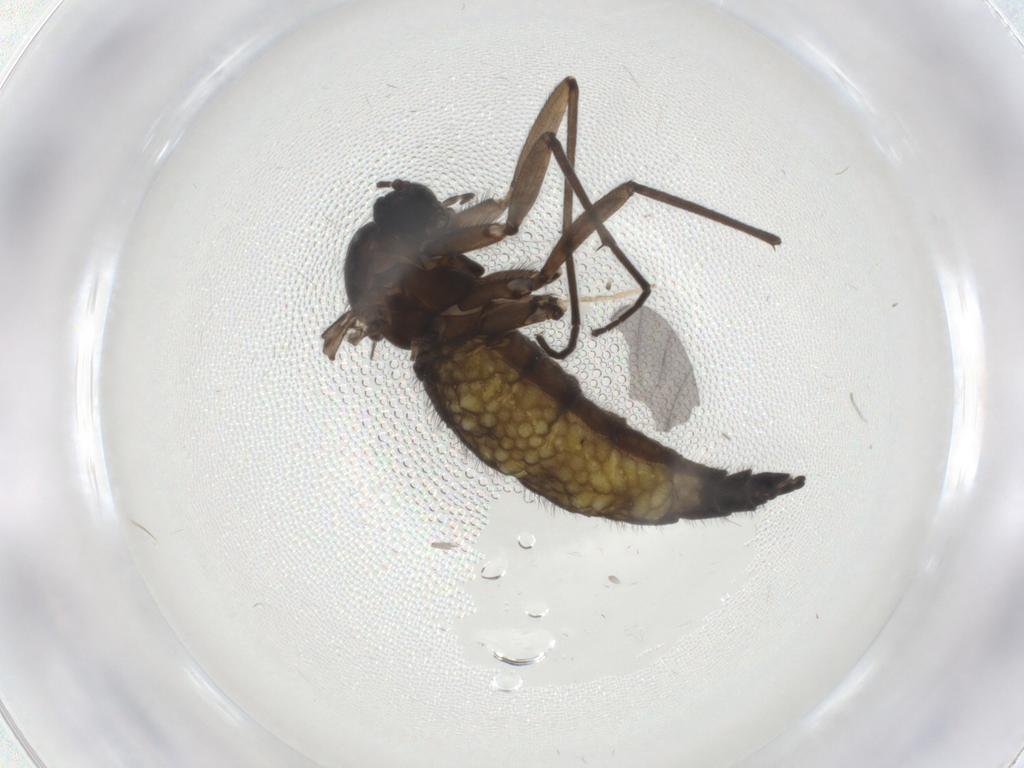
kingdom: Animalia
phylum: Arthropoda
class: Insecta
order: Diptera
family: Sciaridae
